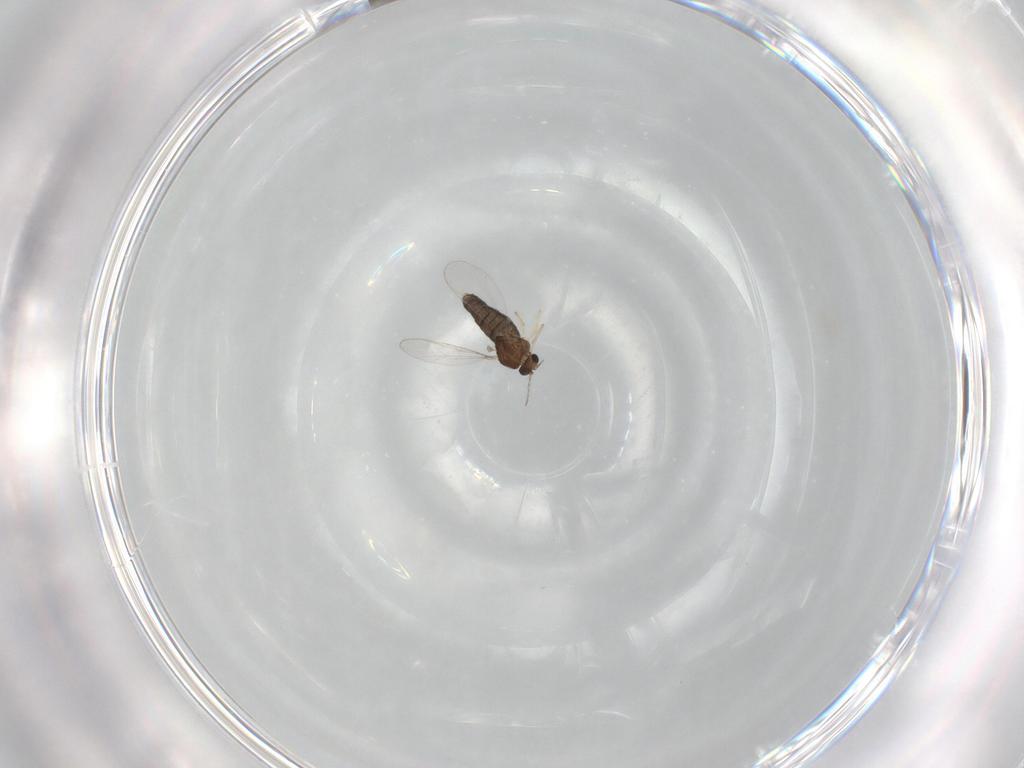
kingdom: Animalia
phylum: Arthropoda
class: Insecta
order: Diptera
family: Chironomidae
